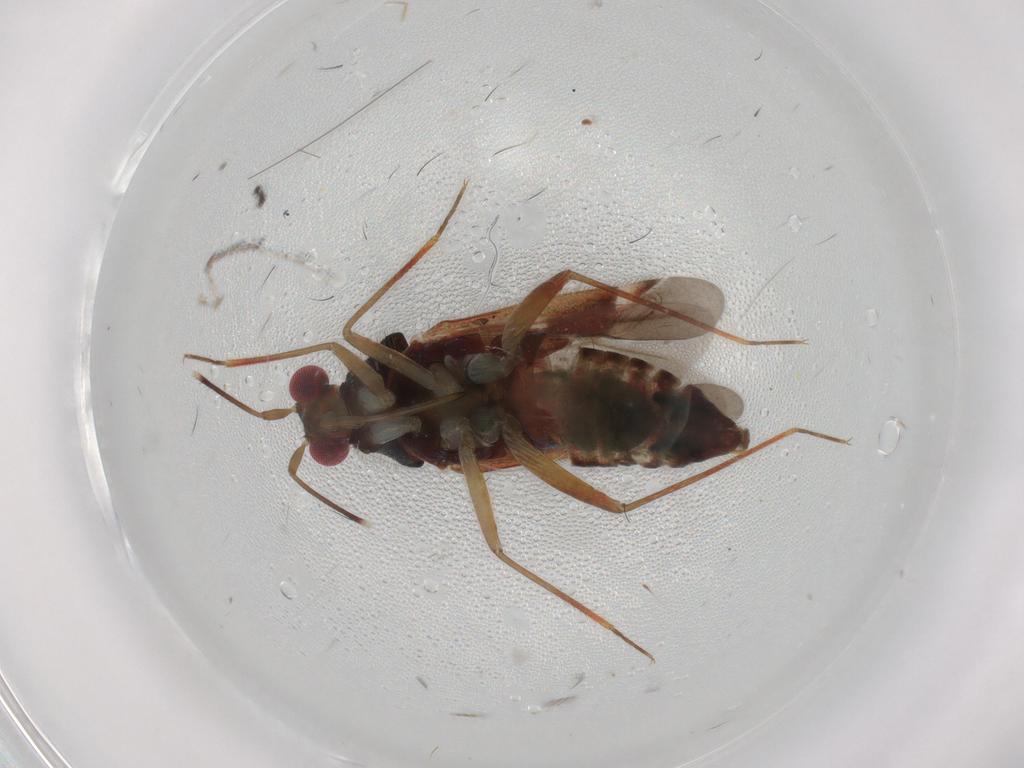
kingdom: Animalia
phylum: Arthropoda
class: Insecta
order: Hemiptera
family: Miridae
